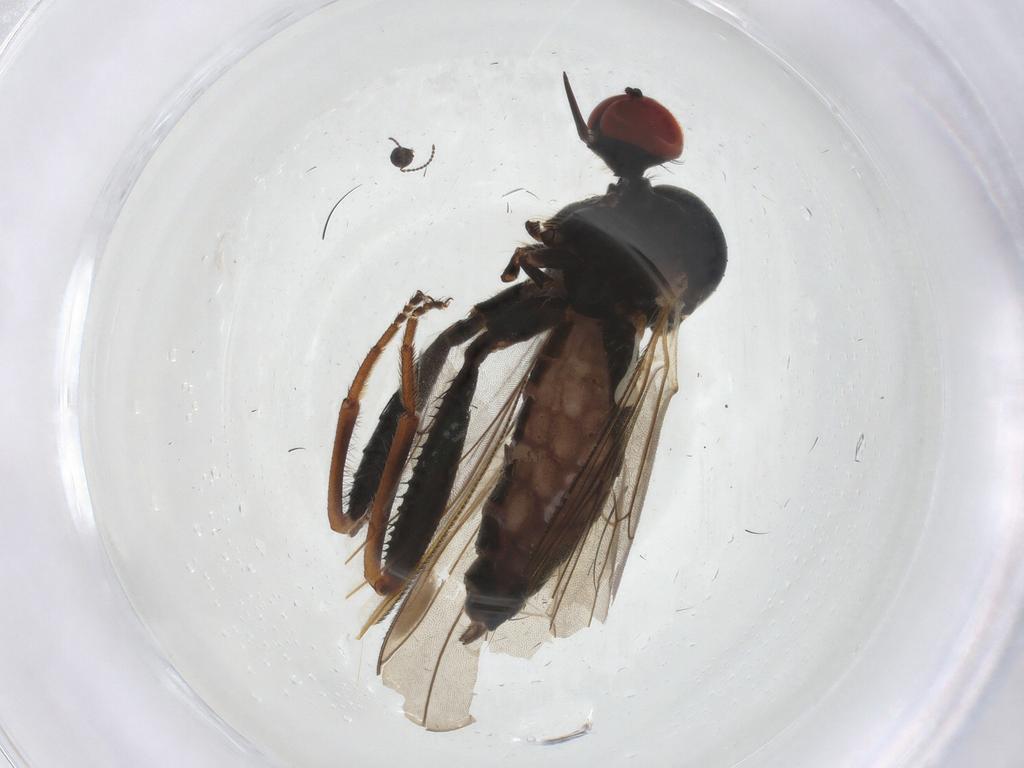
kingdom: Animalia
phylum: Arthropoda
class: Insecta
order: Diptera
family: Hybotidae
